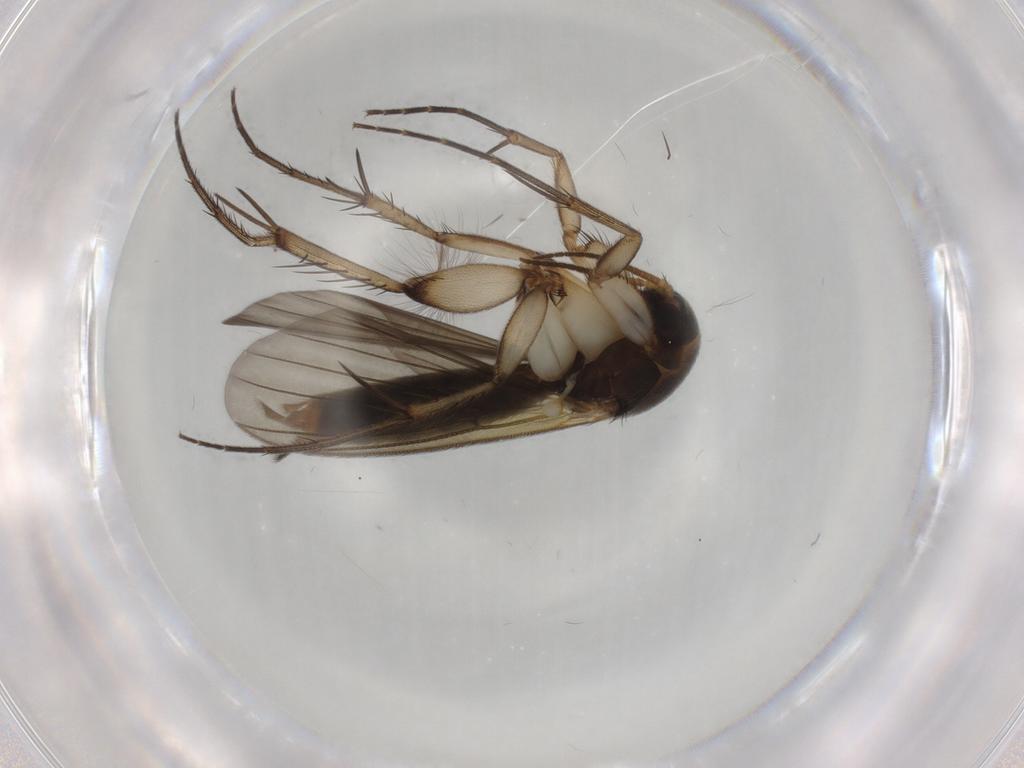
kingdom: Animalia
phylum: Arthropoda
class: Insecta
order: Diptera
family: Mycetophilidae
